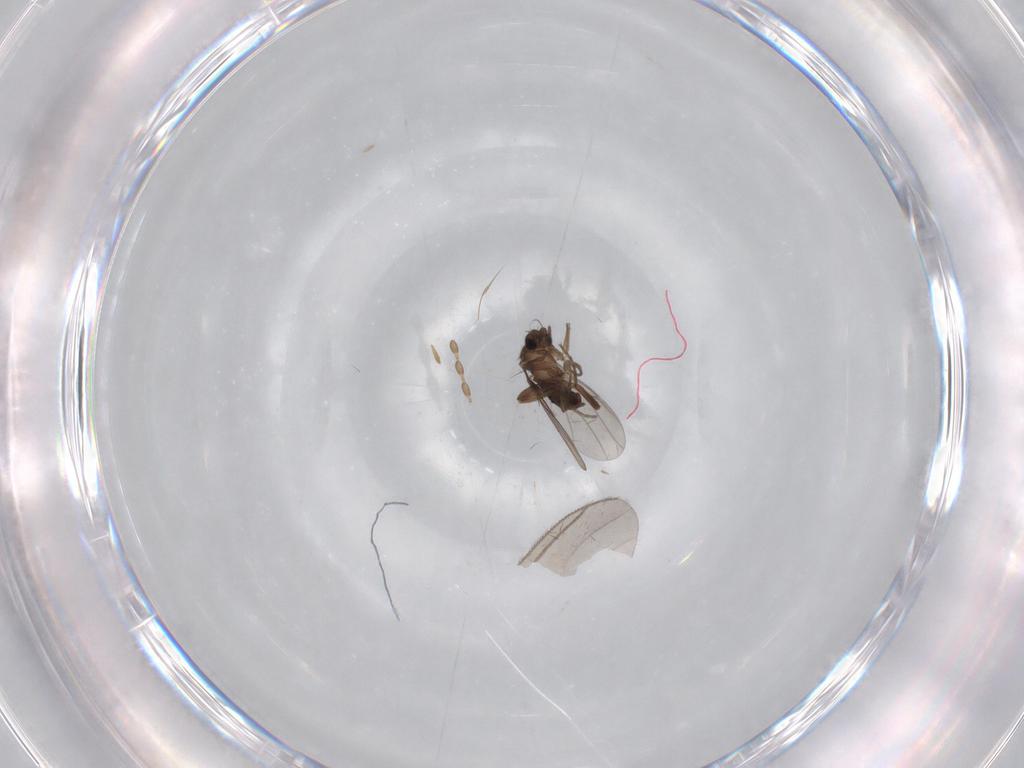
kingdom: Animalia
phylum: Arthropoda
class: Insecta
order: Diptera
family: Psychodidae
